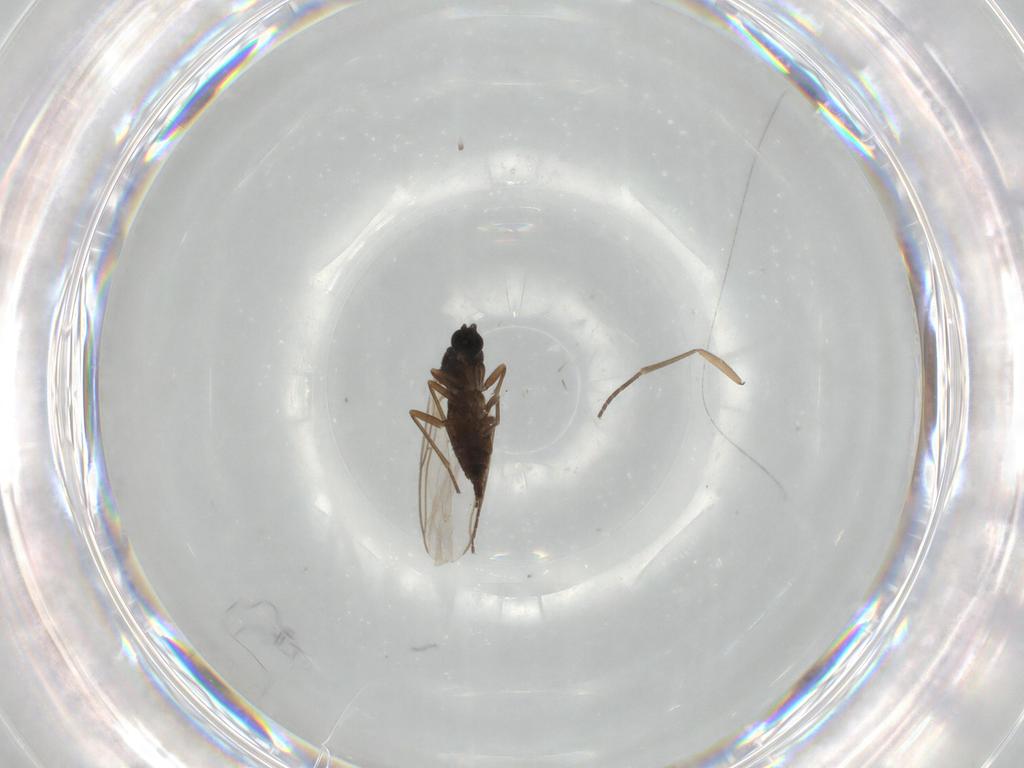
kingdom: Animalia
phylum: Arthropoda
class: Insecta
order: Diptera
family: Sciaridae
